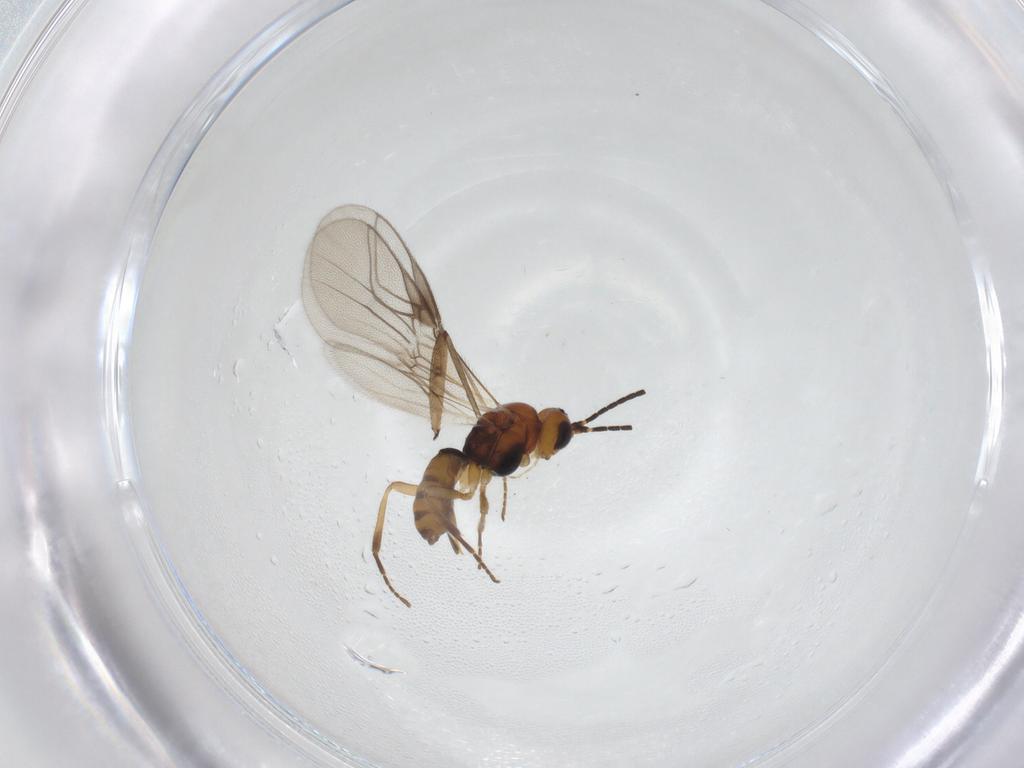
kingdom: Animalia
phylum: Arthropoda
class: Insecta
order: Hymenoptera
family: Braconidae
